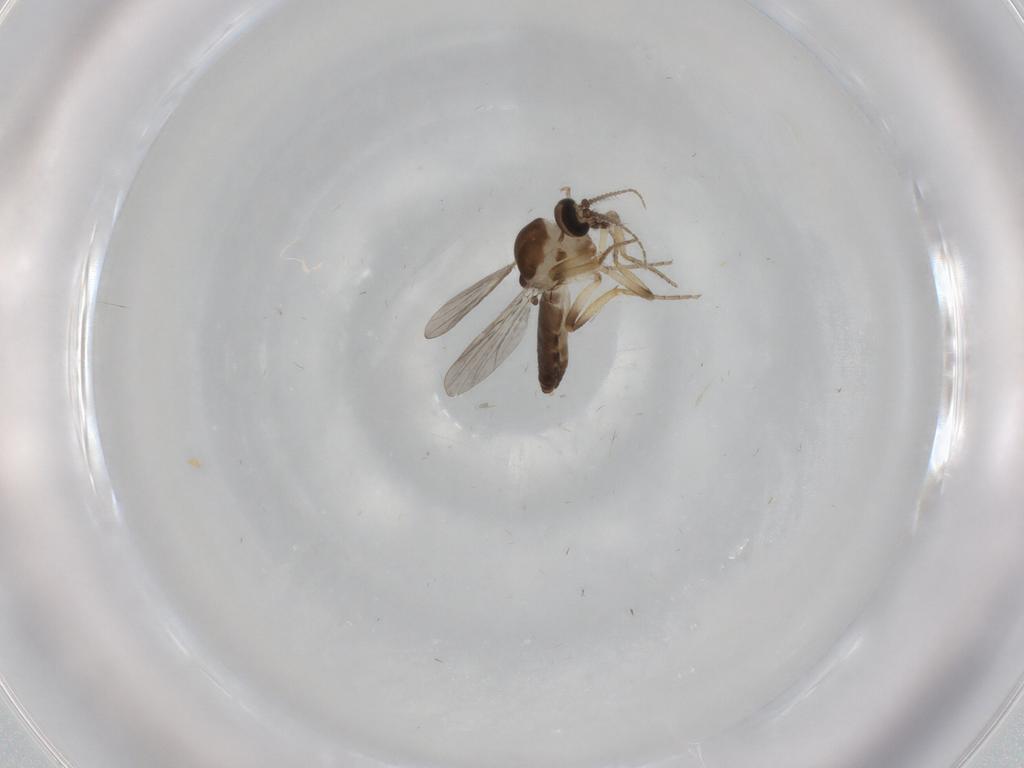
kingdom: Animalia
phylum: Arthropoda
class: Insecta
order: Diptera
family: Ceratopogonidae
